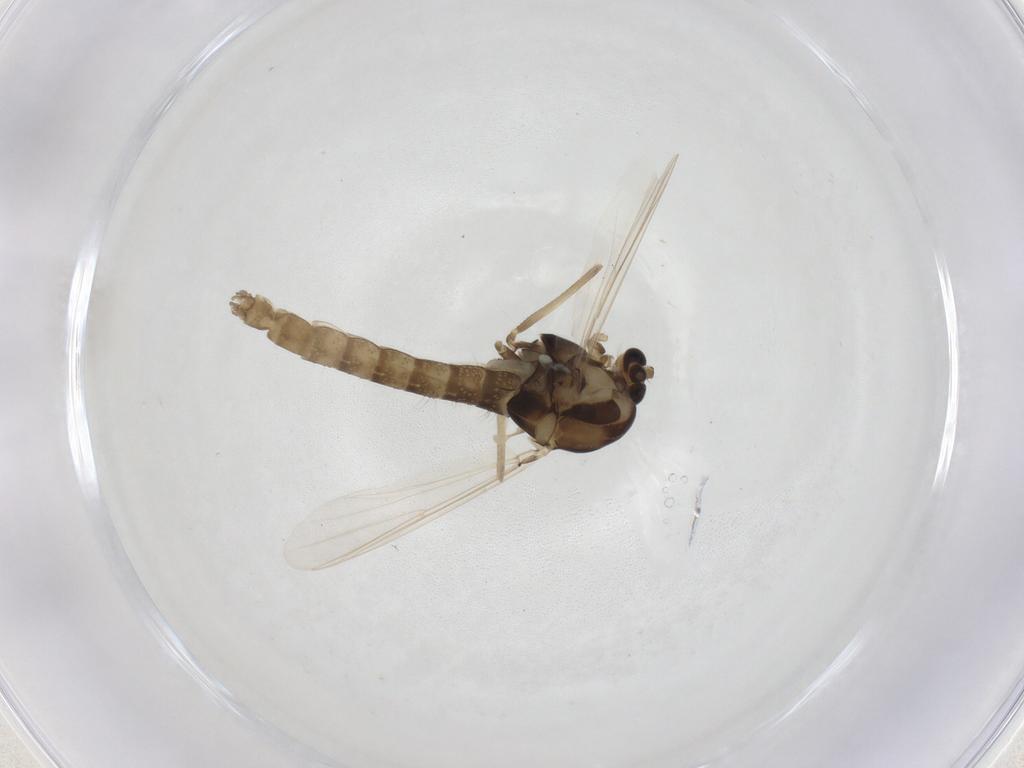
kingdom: Animalia
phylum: Arthropoda
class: Insecta
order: Diptera
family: Chironomidae
